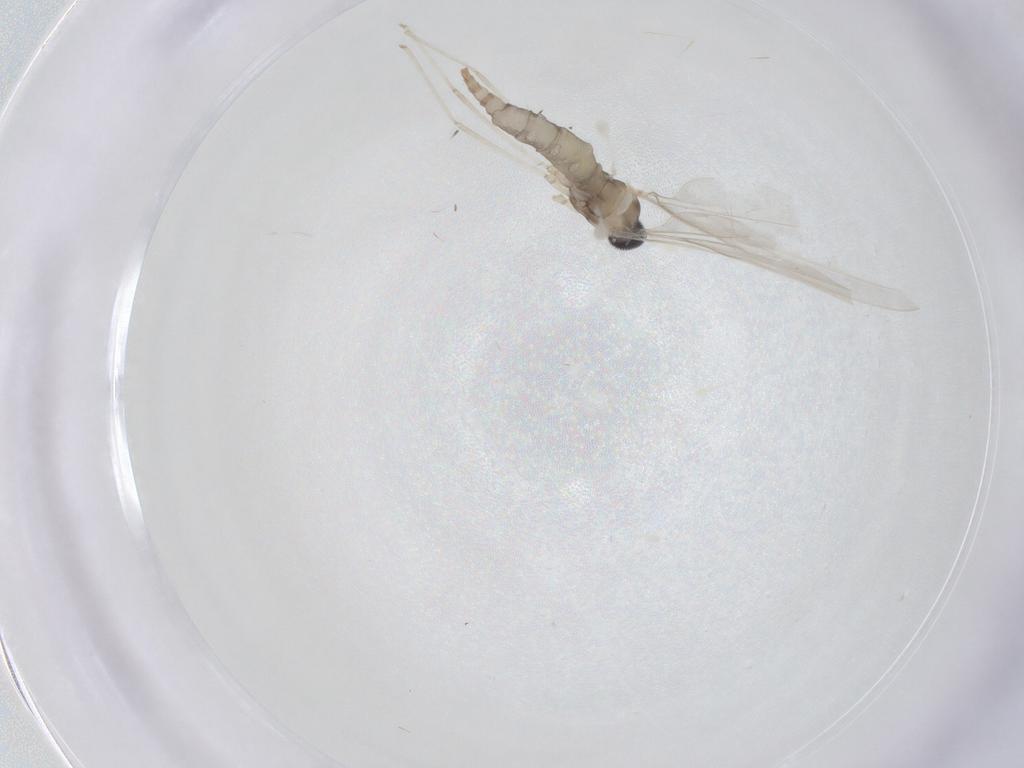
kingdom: Animalia
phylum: Arthropoda
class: Insecta
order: Diptera
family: Cecidomyiidae
